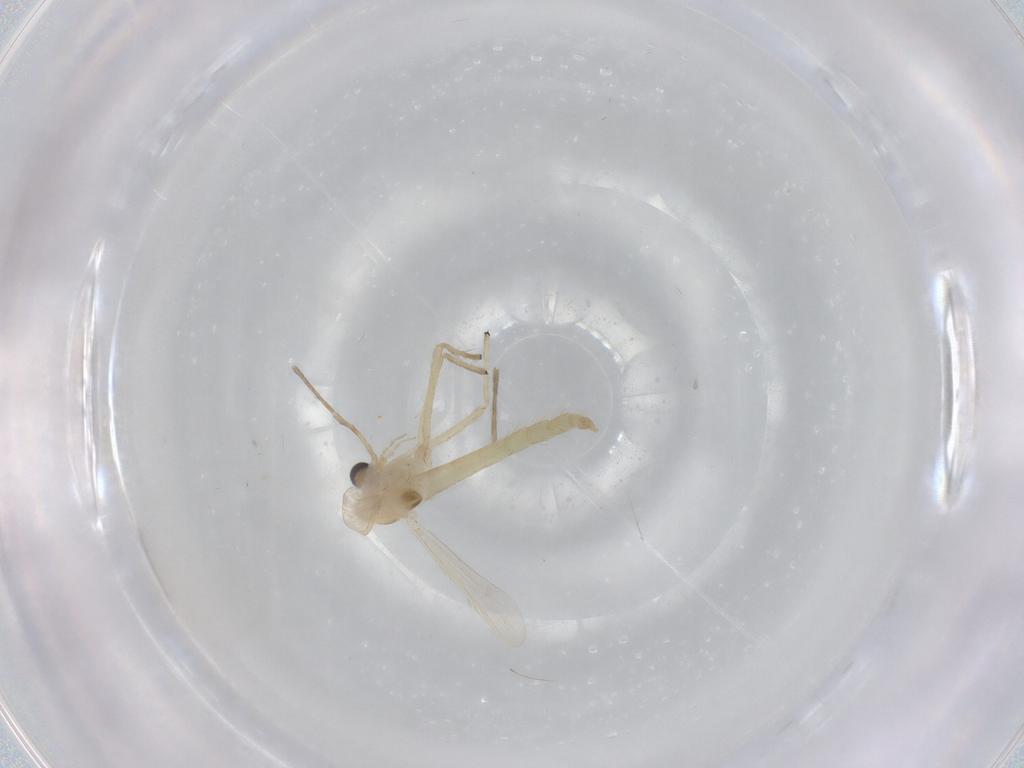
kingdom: Animalia
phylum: Arthropoda
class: Insecta
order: Diptera
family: Chironomidae
